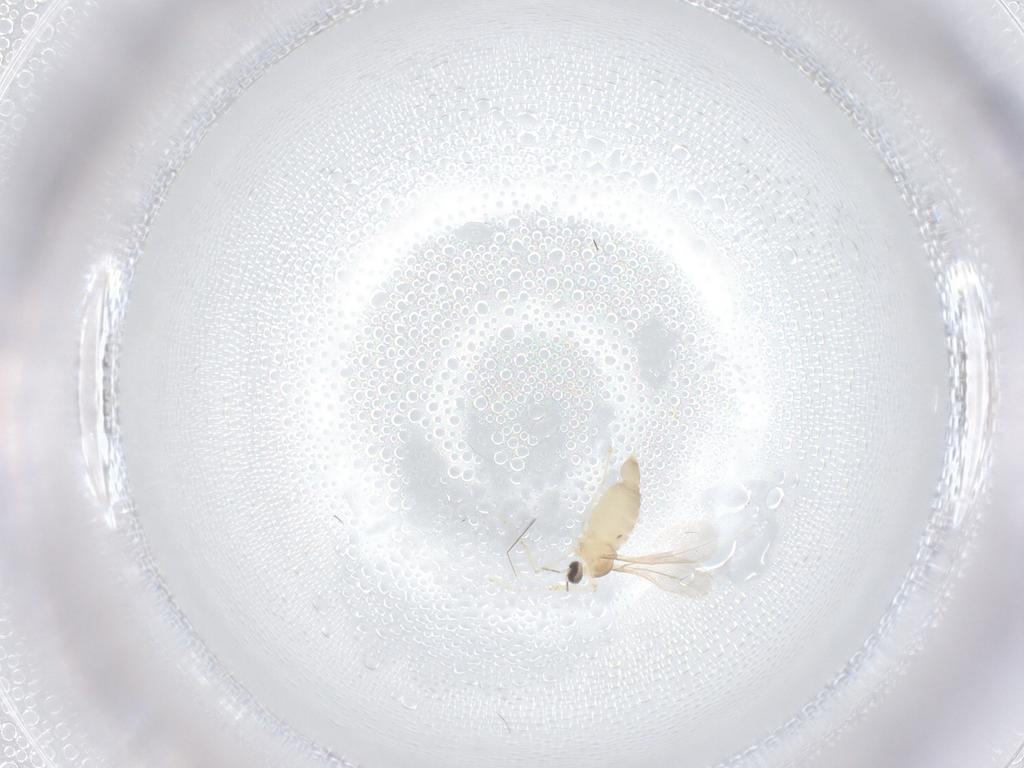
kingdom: Animalia
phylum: Arthropoda
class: Insecta
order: Diptera
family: Cecidomyiidae
